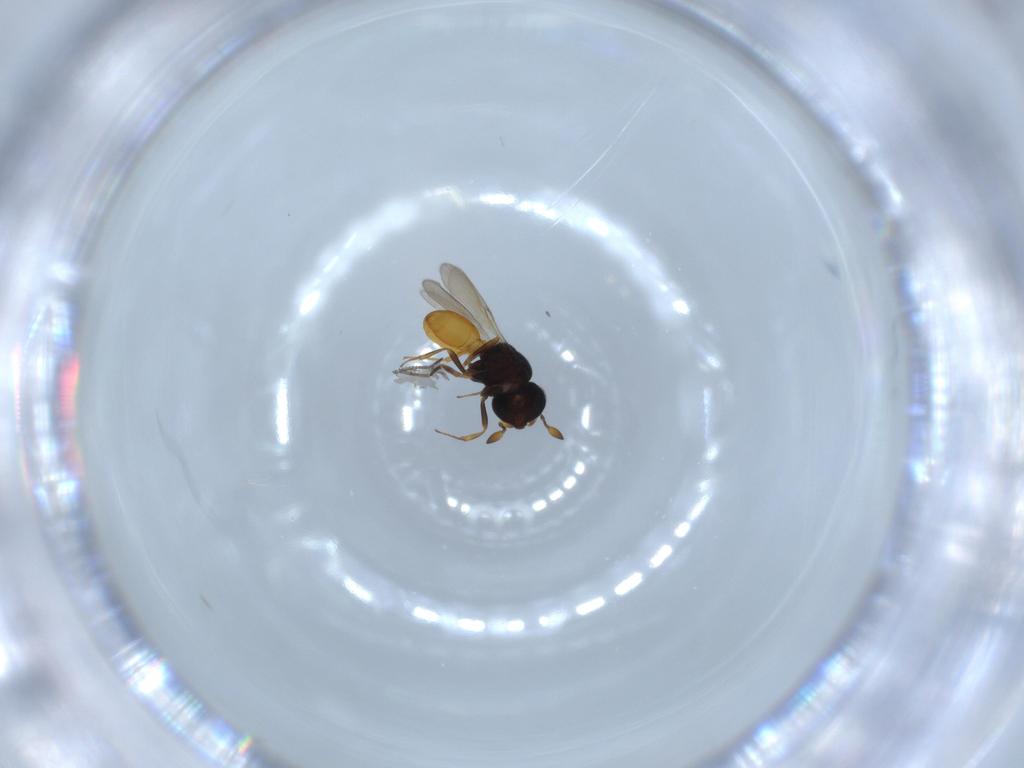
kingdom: Animalia
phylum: Arthropoda
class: Insecta
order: Hymenoptera
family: Scelionidae
